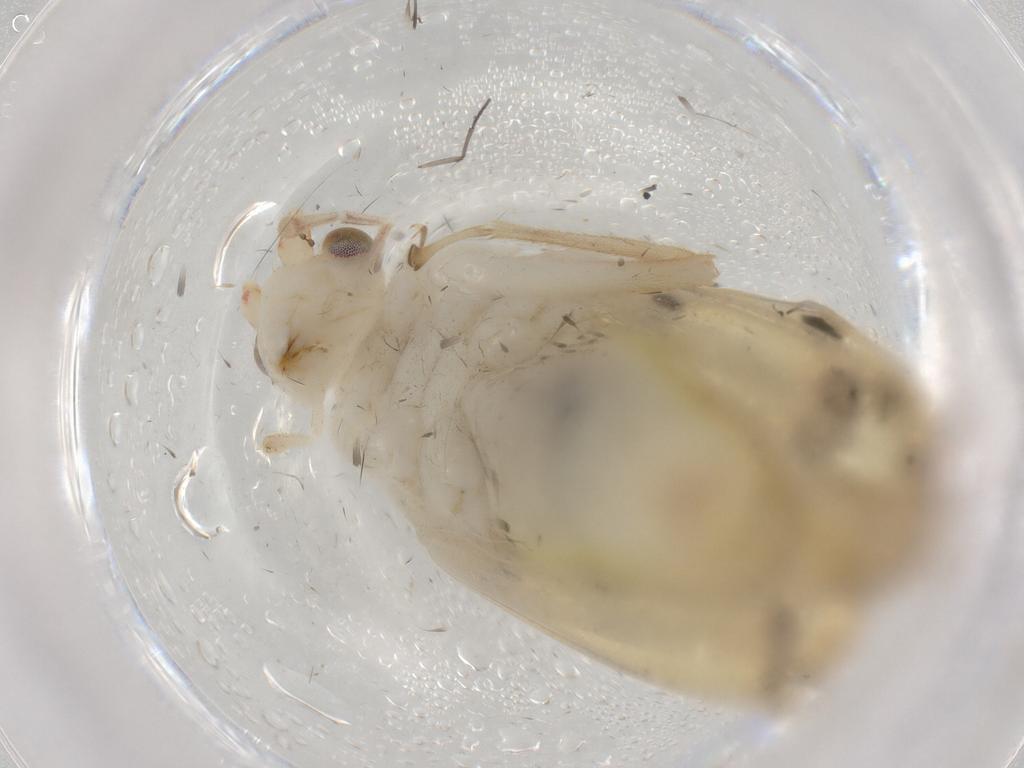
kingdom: Animalia
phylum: Arthropoda
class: Insecta
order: Orthoptera
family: Trigonidiidae
